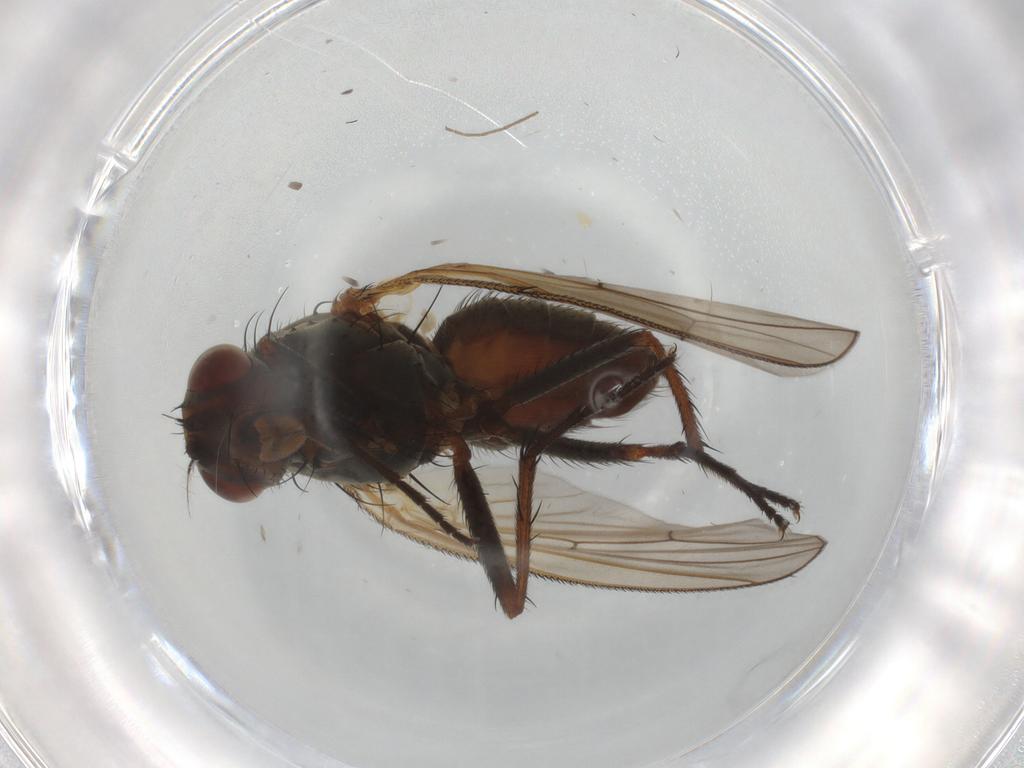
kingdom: Animalia
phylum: Arthropoda
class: Insecta
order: Diptera
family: Chironomidae
